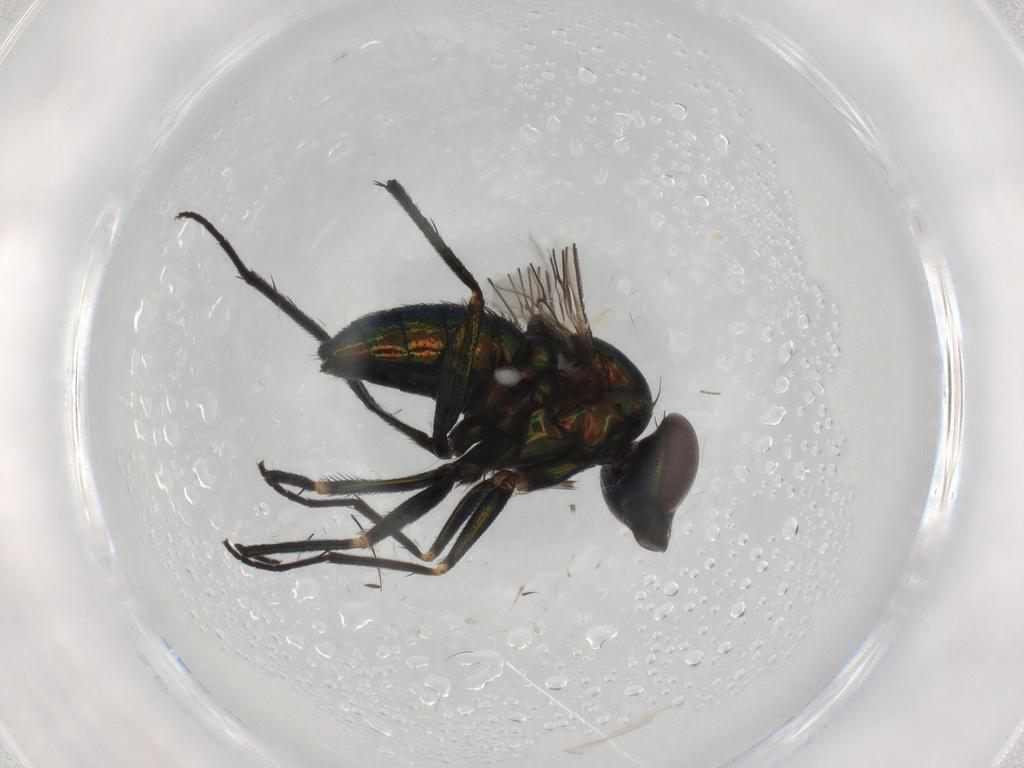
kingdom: Animalia
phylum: Arthropoda
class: Insecta
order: Diptera
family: Dolichopodidae
